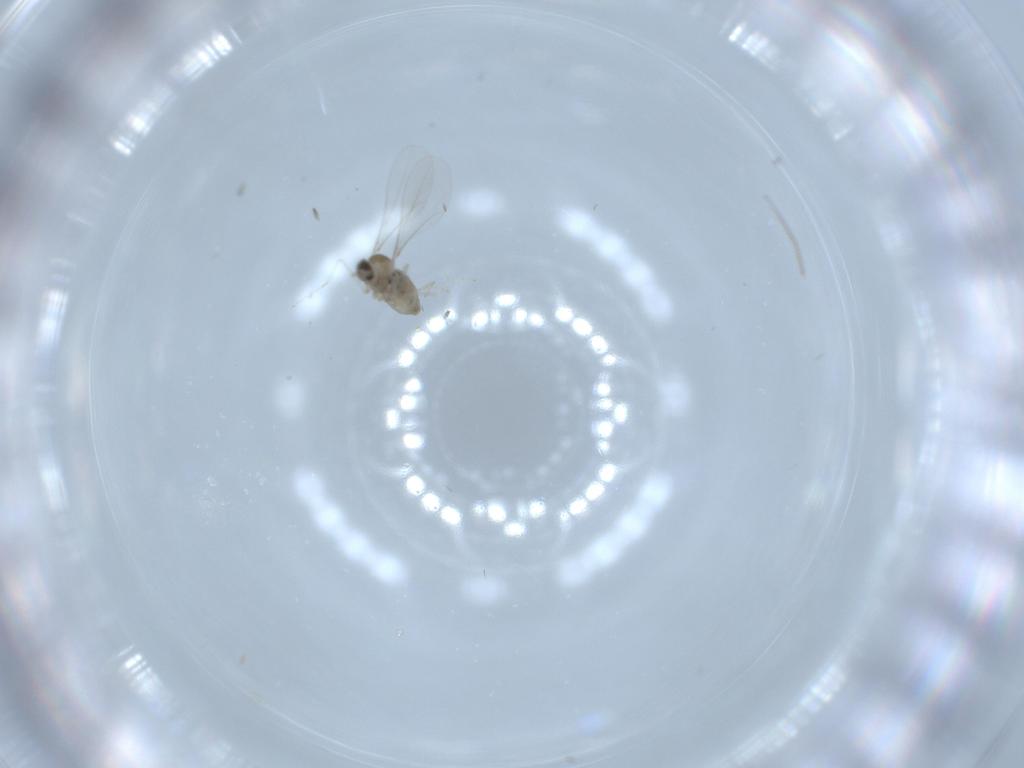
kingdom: Animalia
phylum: Arthropoda
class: Insecta
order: Diptera
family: Cecidomyiidae
